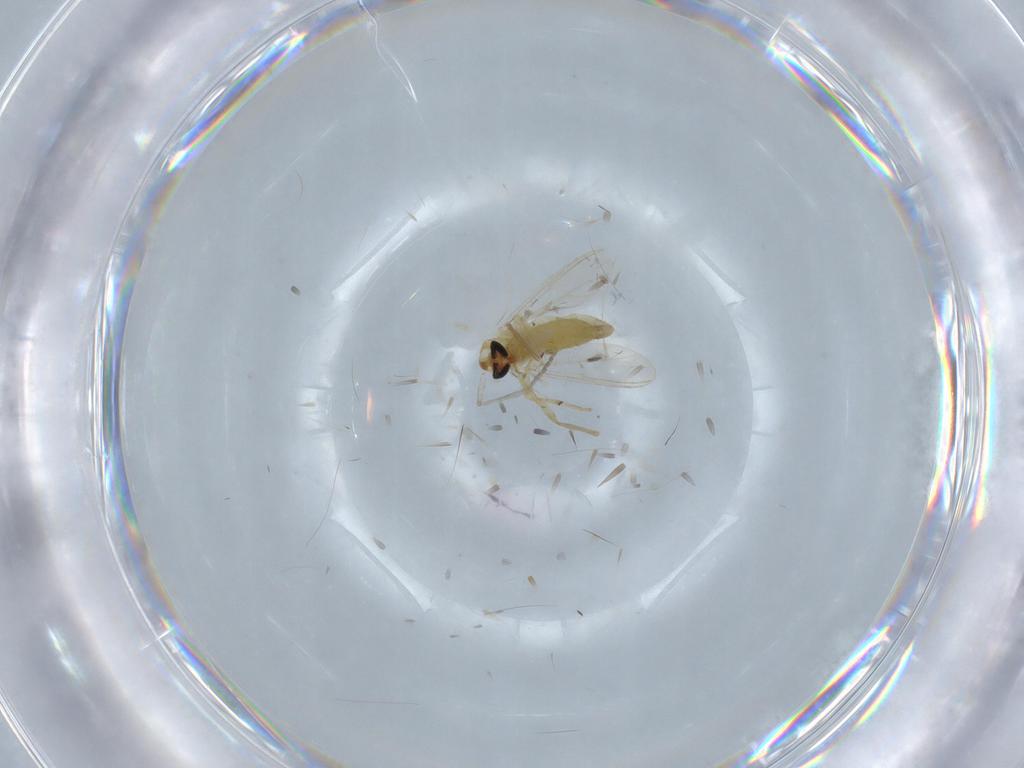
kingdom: Animalia
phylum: Arthropoda
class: Insecta
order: Diptera
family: Chironomidae
